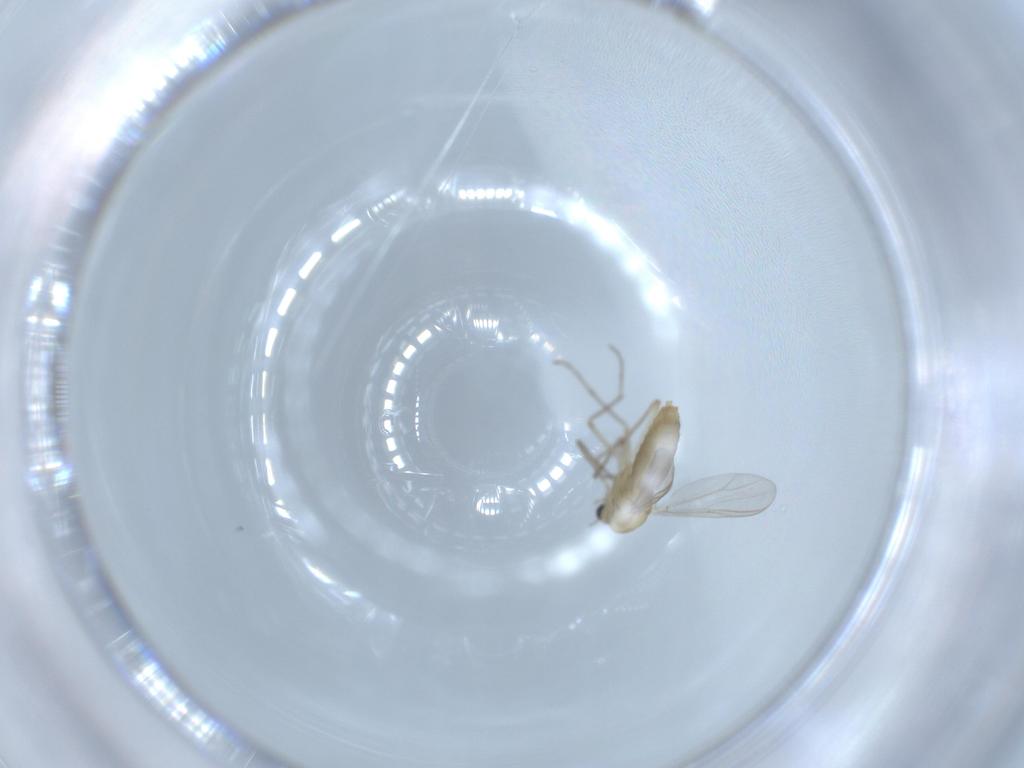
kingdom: Animalia
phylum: Arthropoda
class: Insecta
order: Diptera
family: Chironomidae
